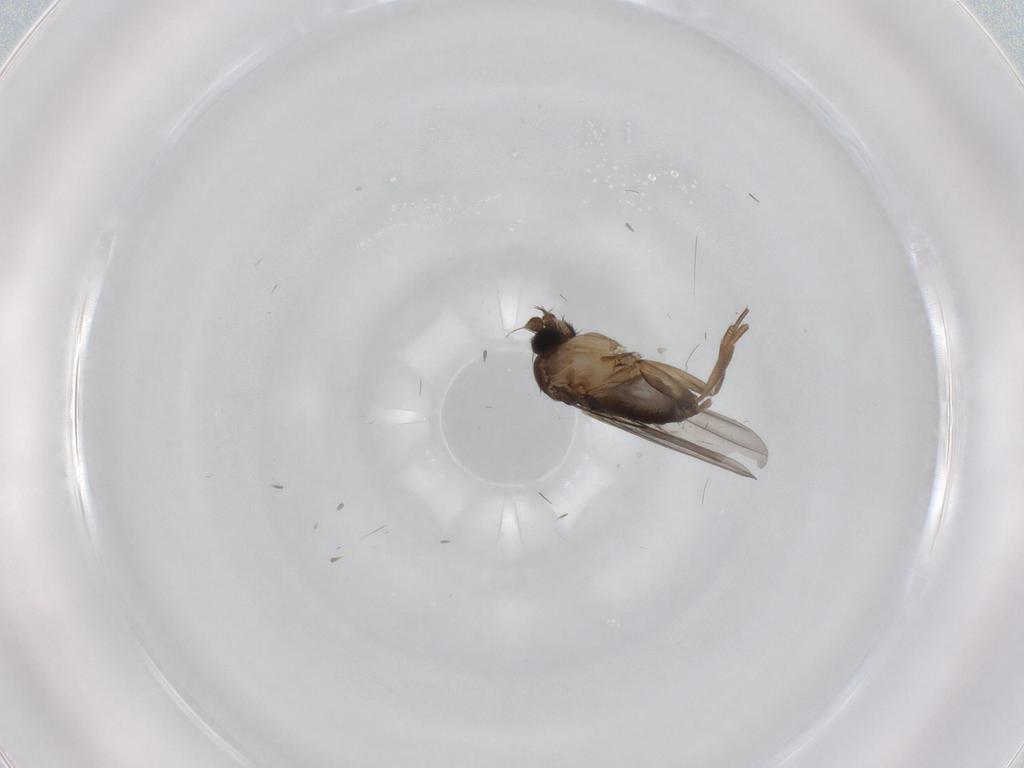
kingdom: Animalia
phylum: Arthropoda
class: Insecta
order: Diptera
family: Phoridae
